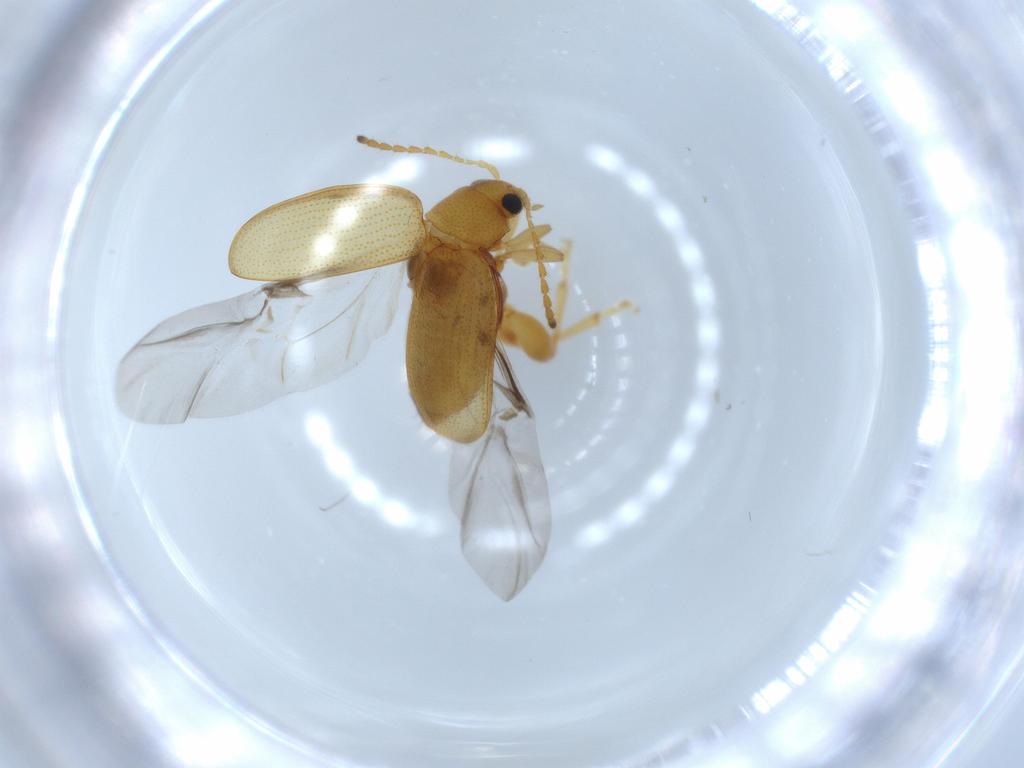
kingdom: Animalia
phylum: Arthropoda
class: Insecta
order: Coleoptera
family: Chrysomelidae
